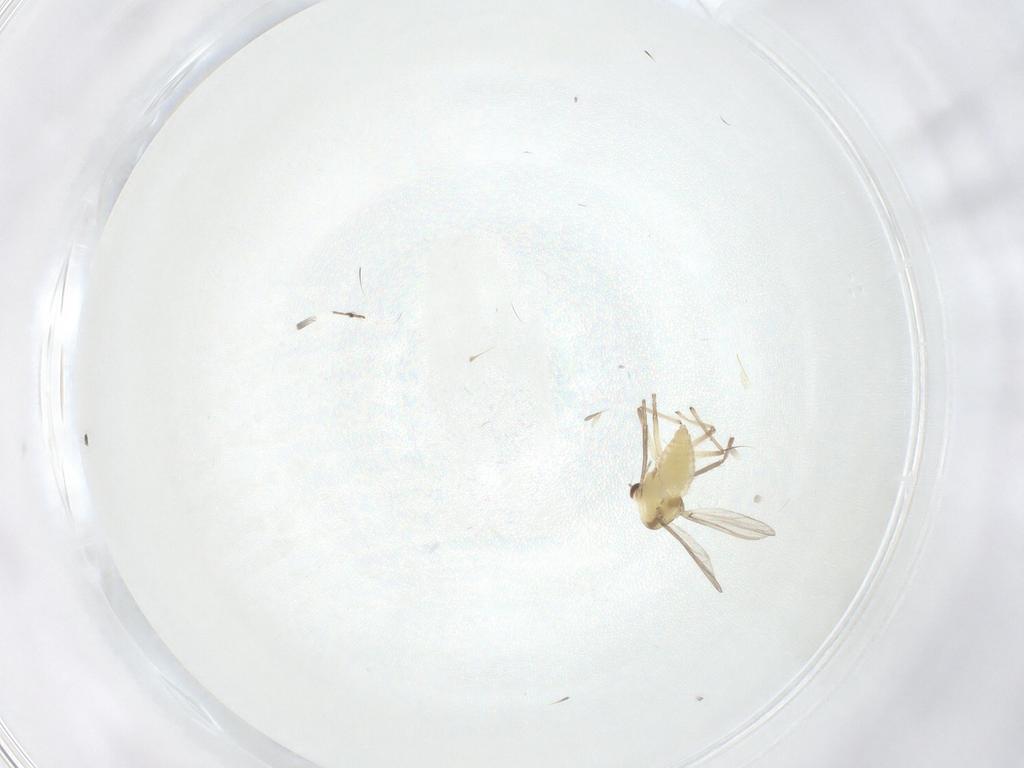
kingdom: Animalia
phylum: Arthropoda
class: Insecta
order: Diptera
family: Chironomidae
